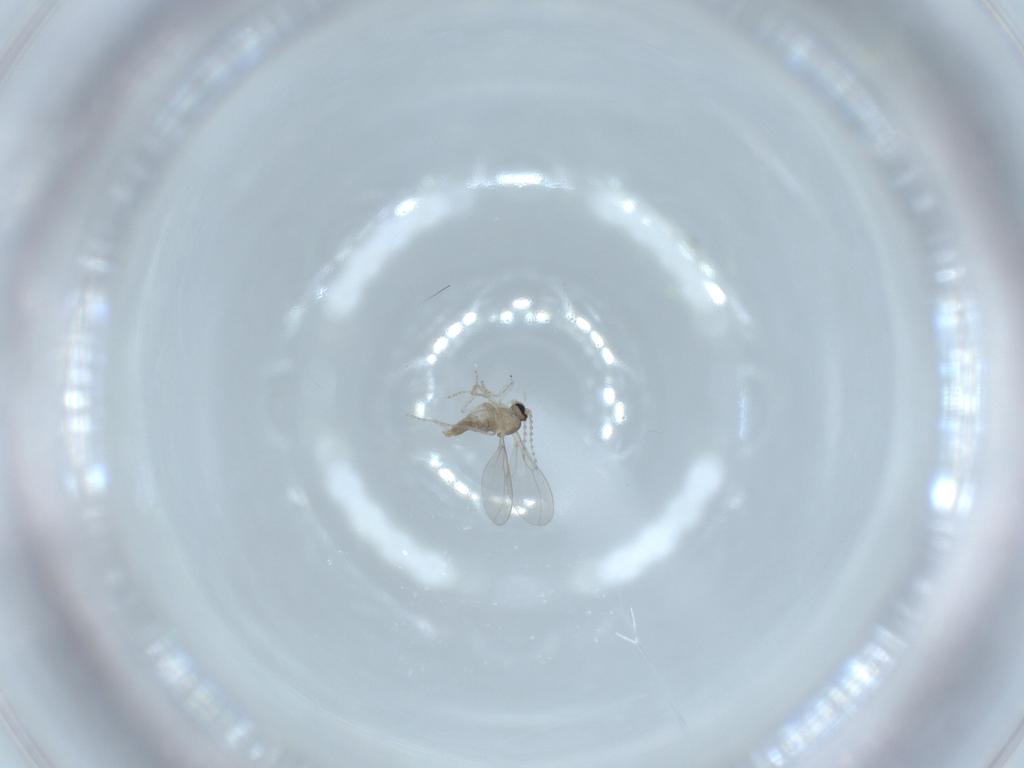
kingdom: Animalia
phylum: Arthropoda
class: Insecta
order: Diptera
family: Cecidomyiidae
